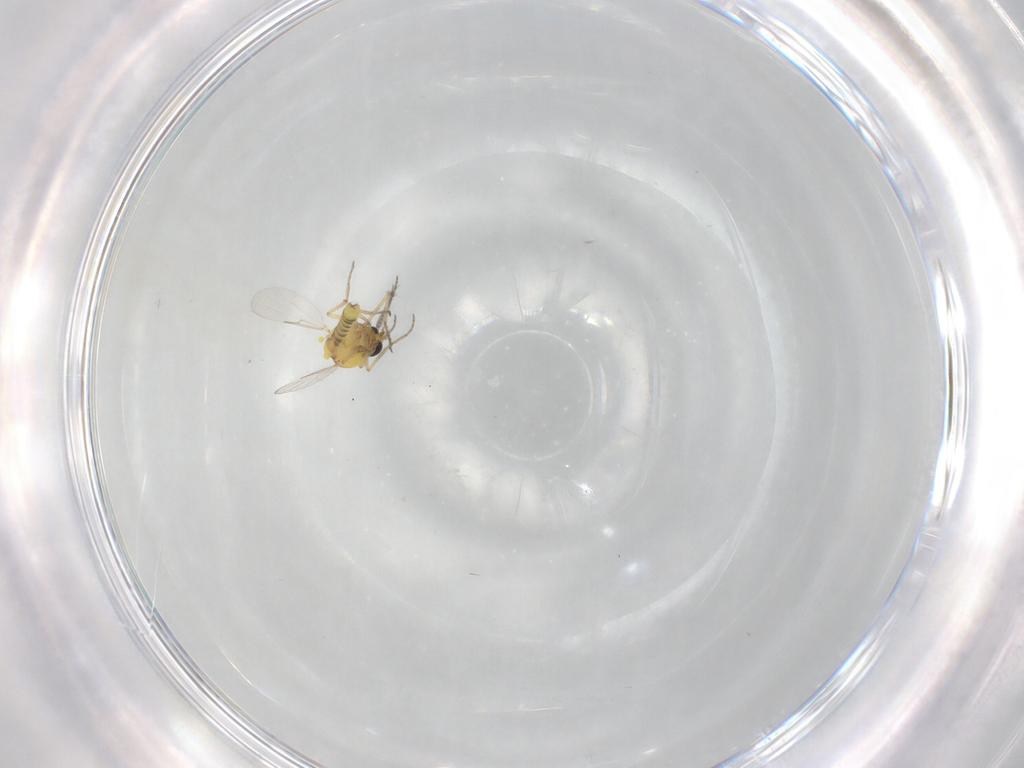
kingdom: Animalia
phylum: Arthropoda
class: Insecta
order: Diptera
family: Ceratopogonidae
